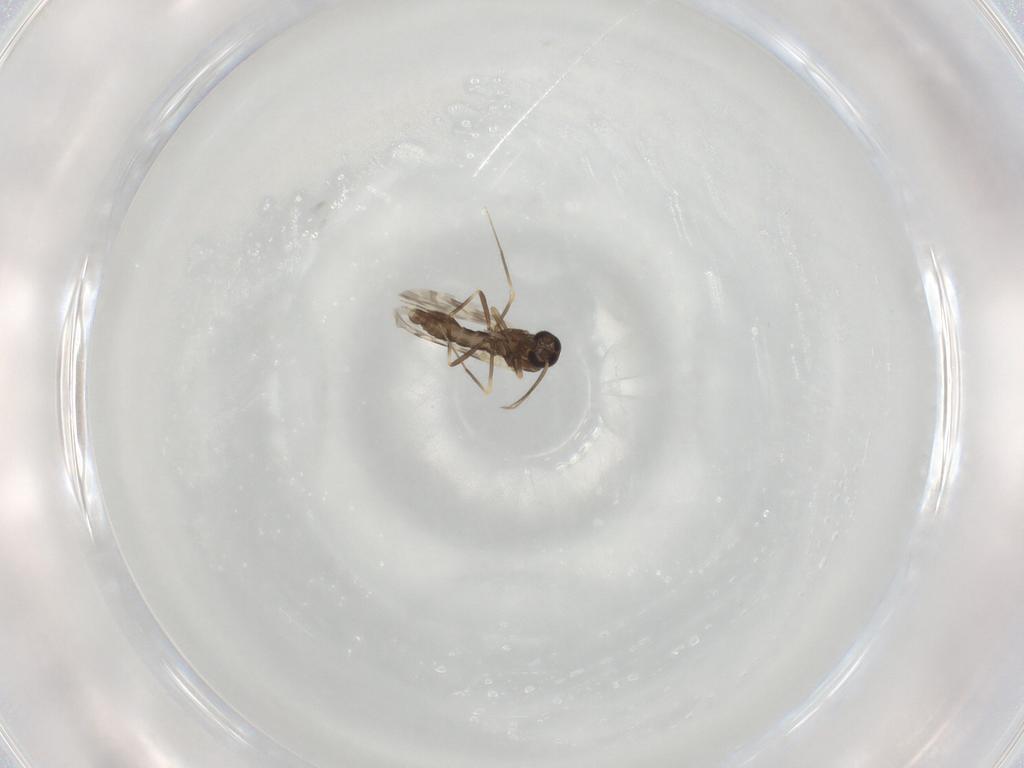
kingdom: Animalia
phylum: Arthropoda
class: Insecta
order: Diptera
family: Ceratopogonidae
